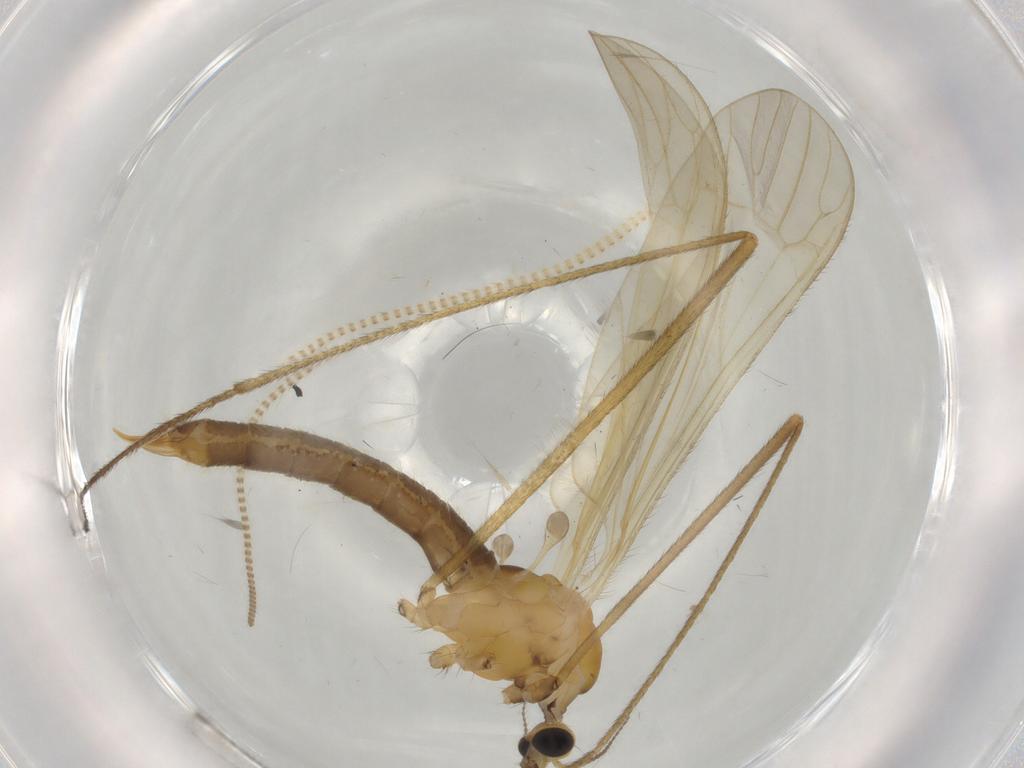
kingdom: Animalia
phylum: Arthropoda
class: Insecta
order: Diptera
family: Limoniidae
